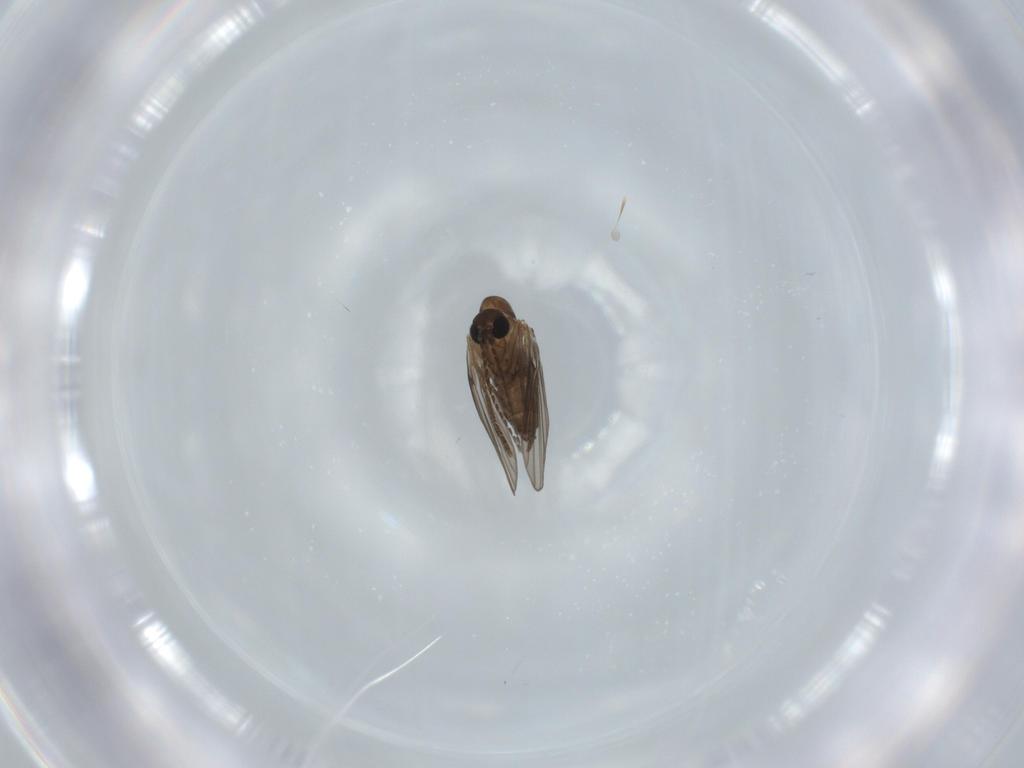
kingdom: Animalia
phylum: Arthropoda
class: Insecta
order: Diptera
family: Psychodidae
